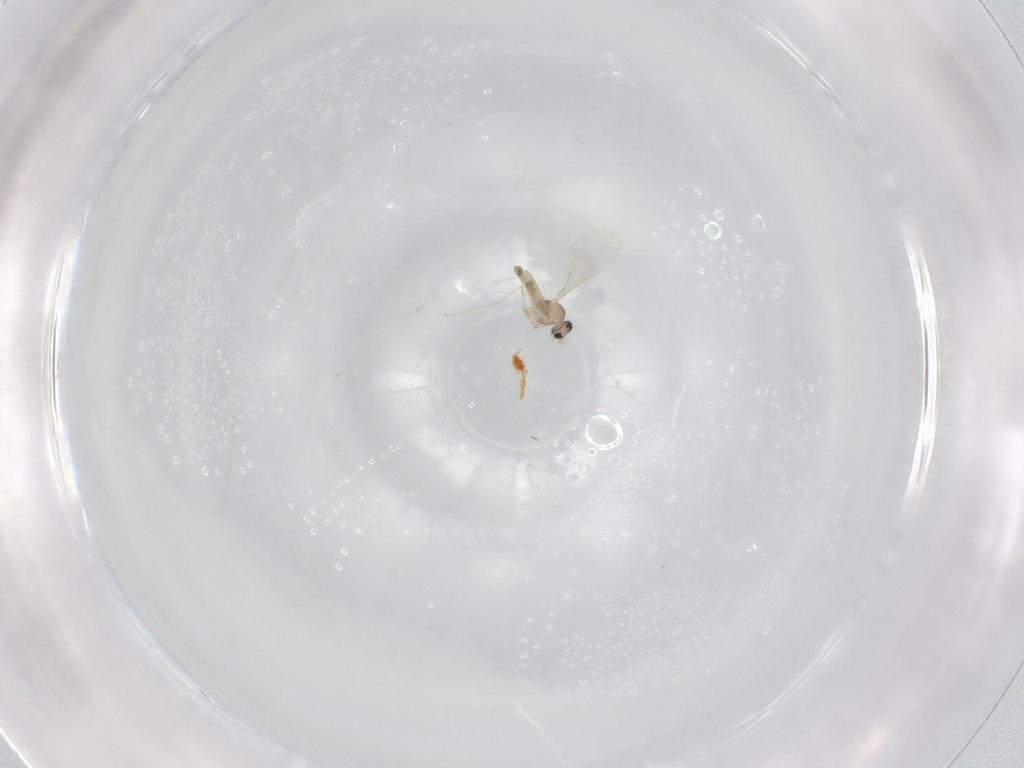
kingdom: Animalia
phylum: Arthropoda
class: Insecta
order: Diptera
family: Cecidomyiidae
